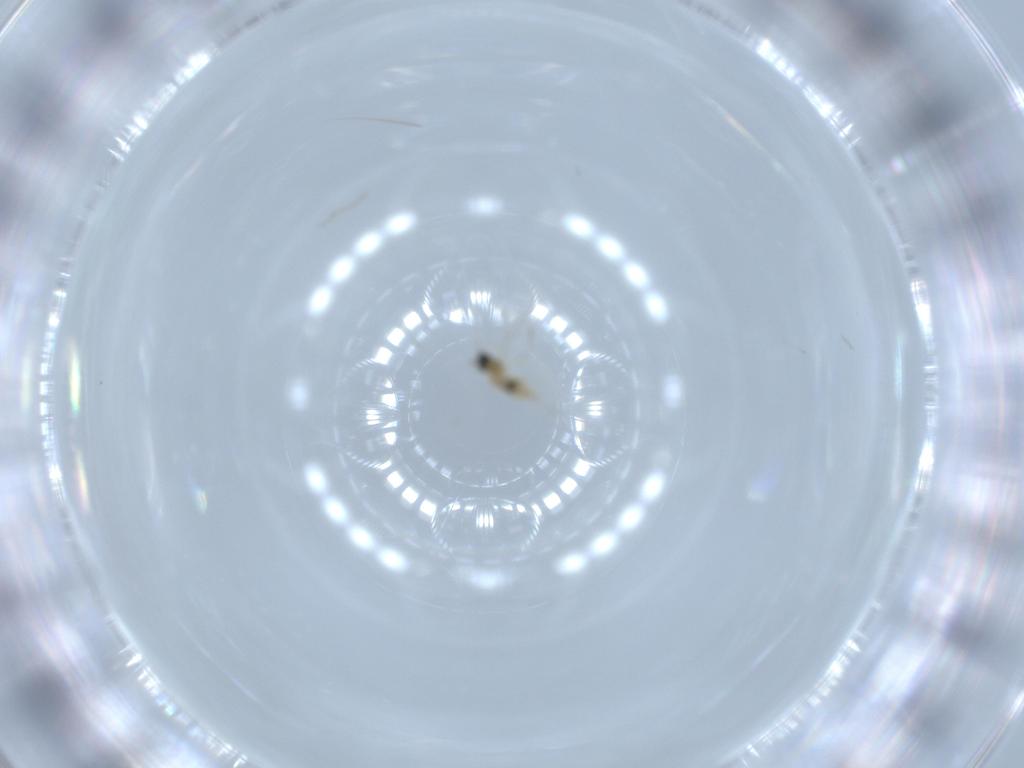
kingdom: Animalia
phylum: Arthropoda
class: Insecta
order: Diptera
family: Cecidomyiidae
